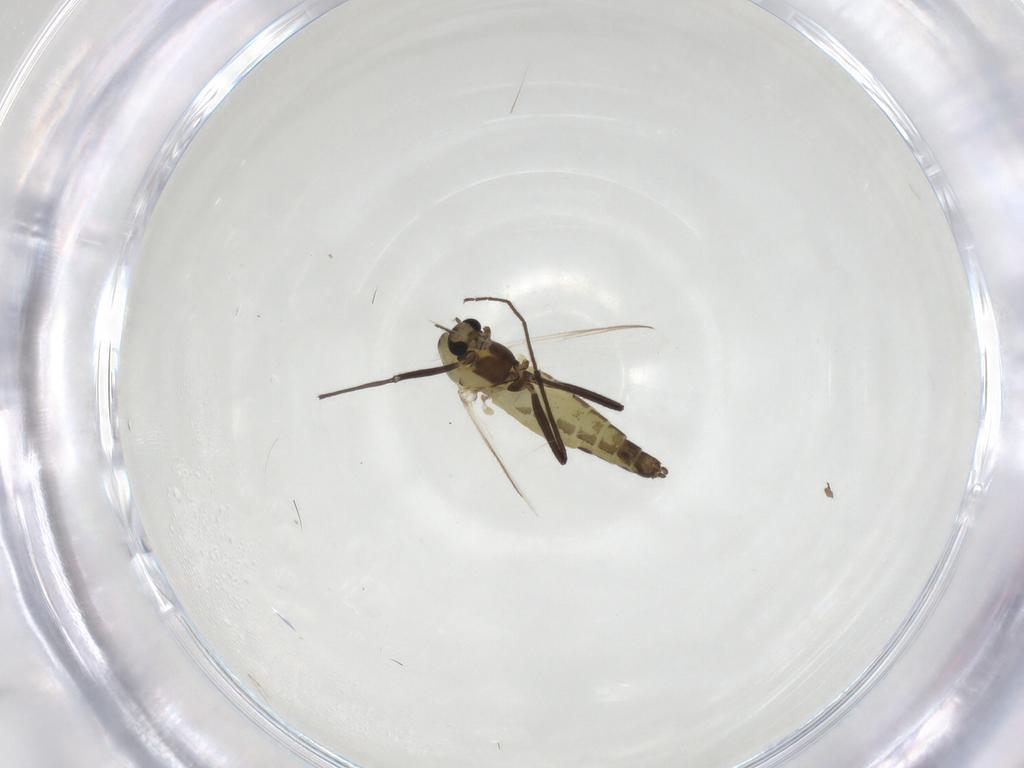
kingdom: Animalia
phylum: Arthropoda
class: Insecta
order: Diptera
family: Chironomidae
